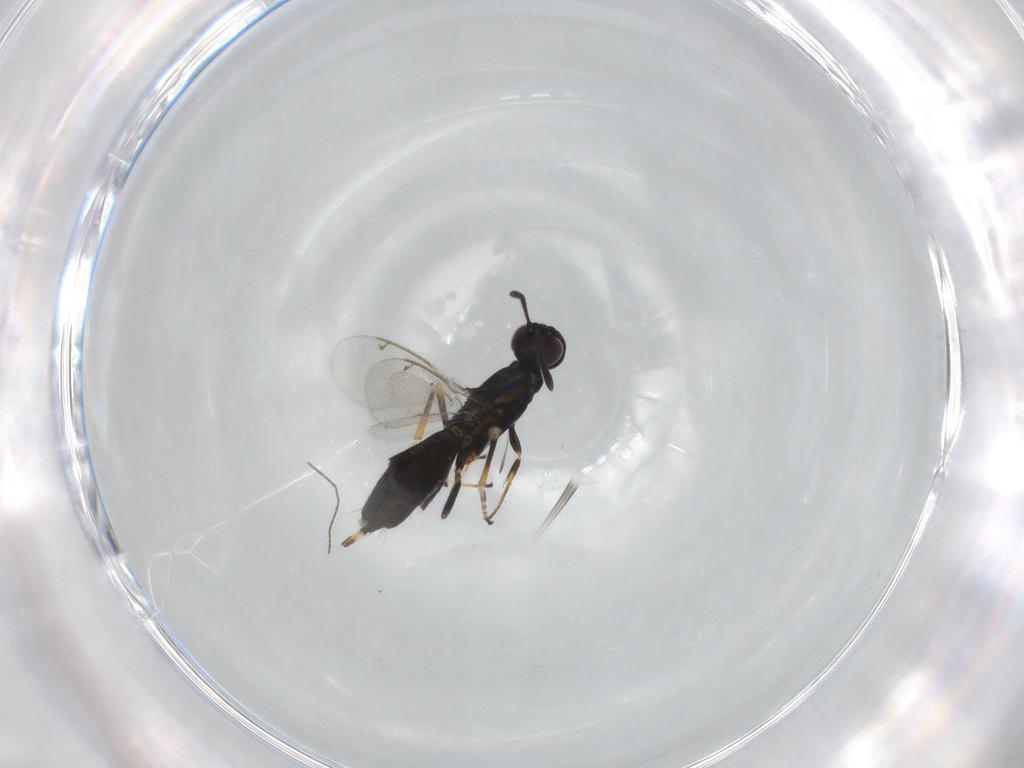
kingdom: Animalia
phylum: Arthropoda
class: Insecta
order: Hymenoptera
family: Eupelmidae
